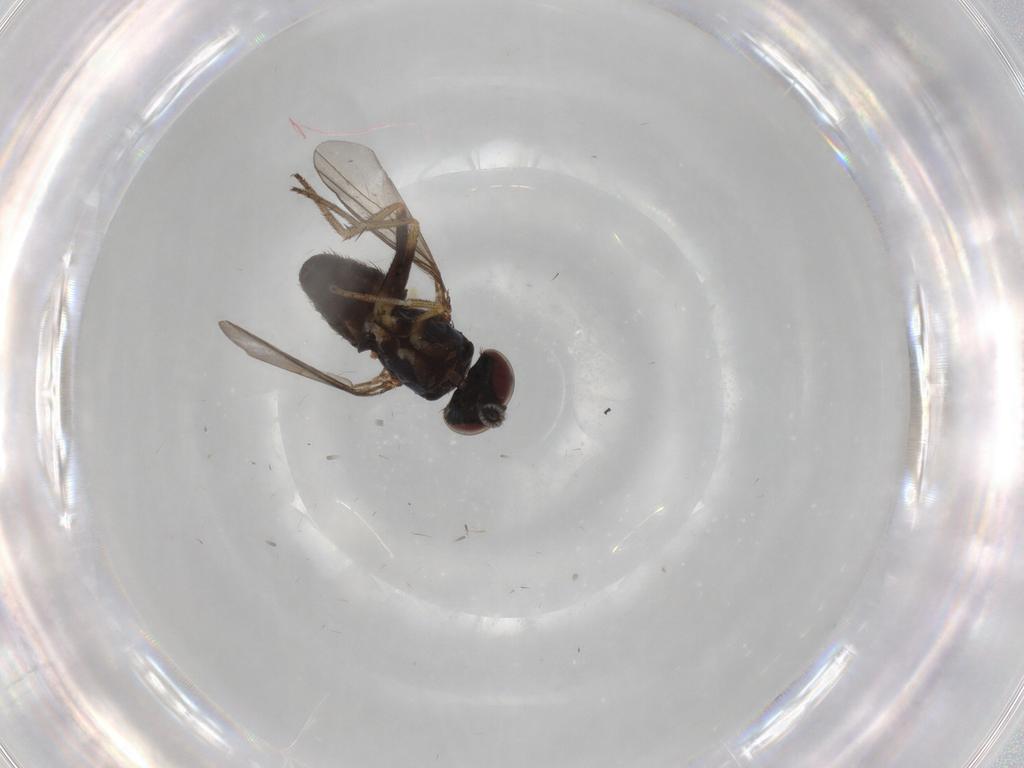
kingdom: Animalia
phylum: Arthropoda
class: Insecta
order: Diptera
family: Dolichopodidae
